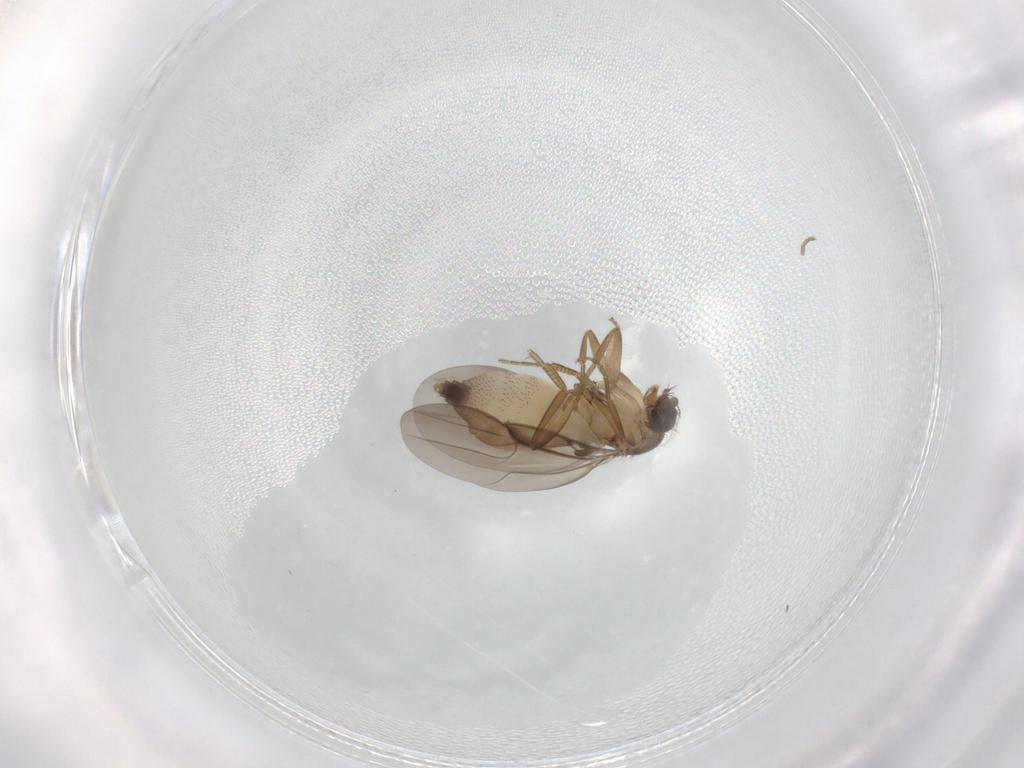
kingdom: Animalia
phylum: Arthropoda
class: Insecta
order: Diptera
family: Phoridae
